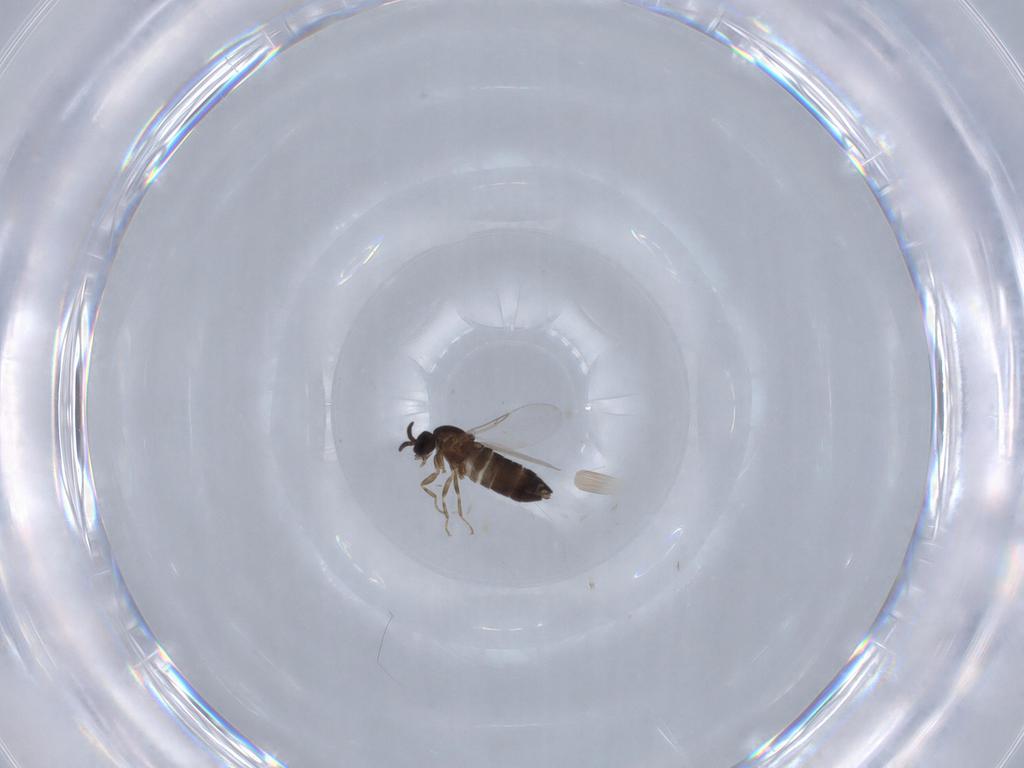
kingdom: Animalia
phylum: Arthropoda
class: Insecta
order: Diptera
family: Scatopsidae
